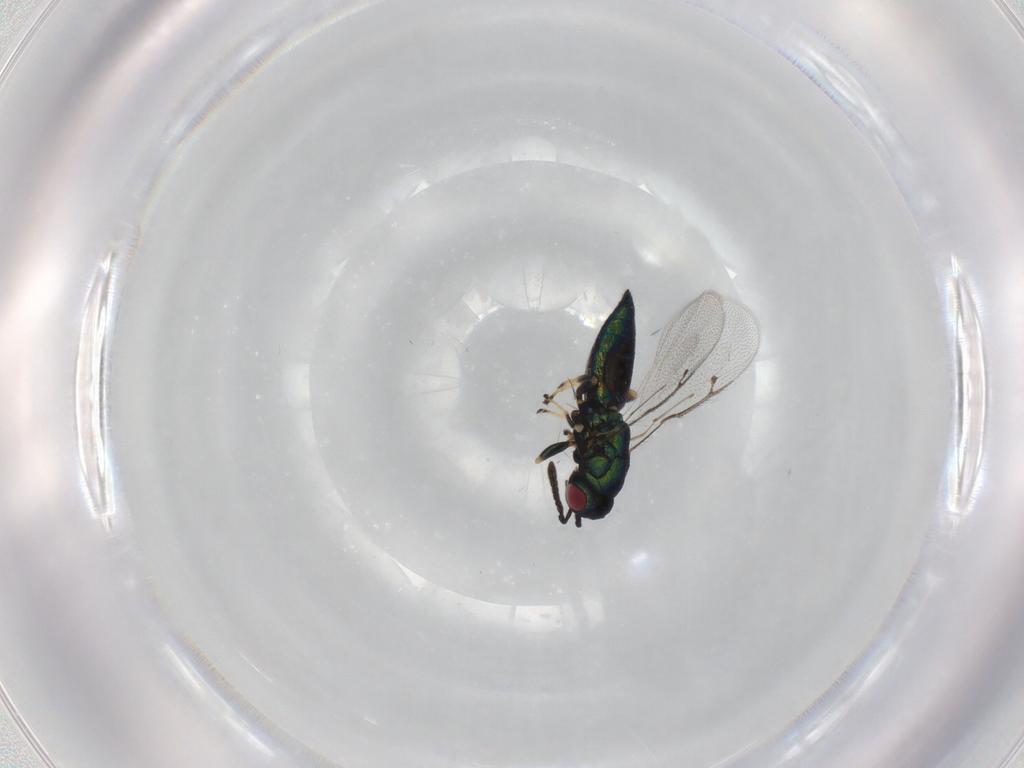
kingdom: Animalia
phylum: Arthropoda
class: Insecta
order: Hymenoptera
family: Pteromalidae
